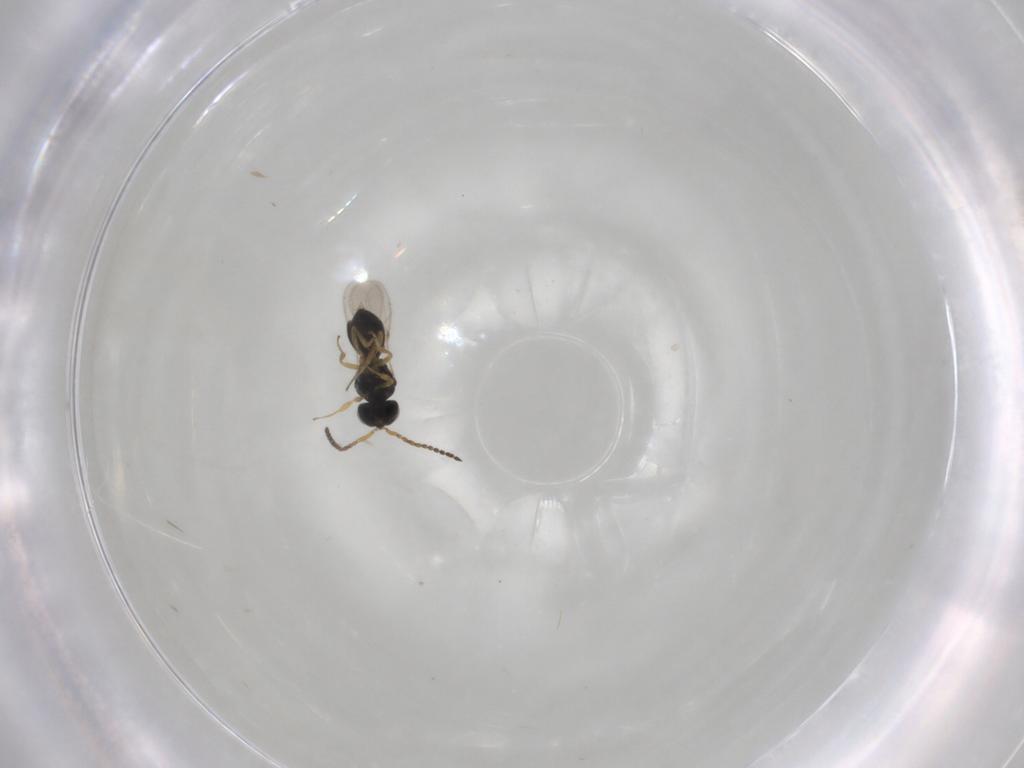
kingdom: Animalia
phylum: Arthropoda
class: Insecta
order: Hymenoptera
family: Scelionidae
